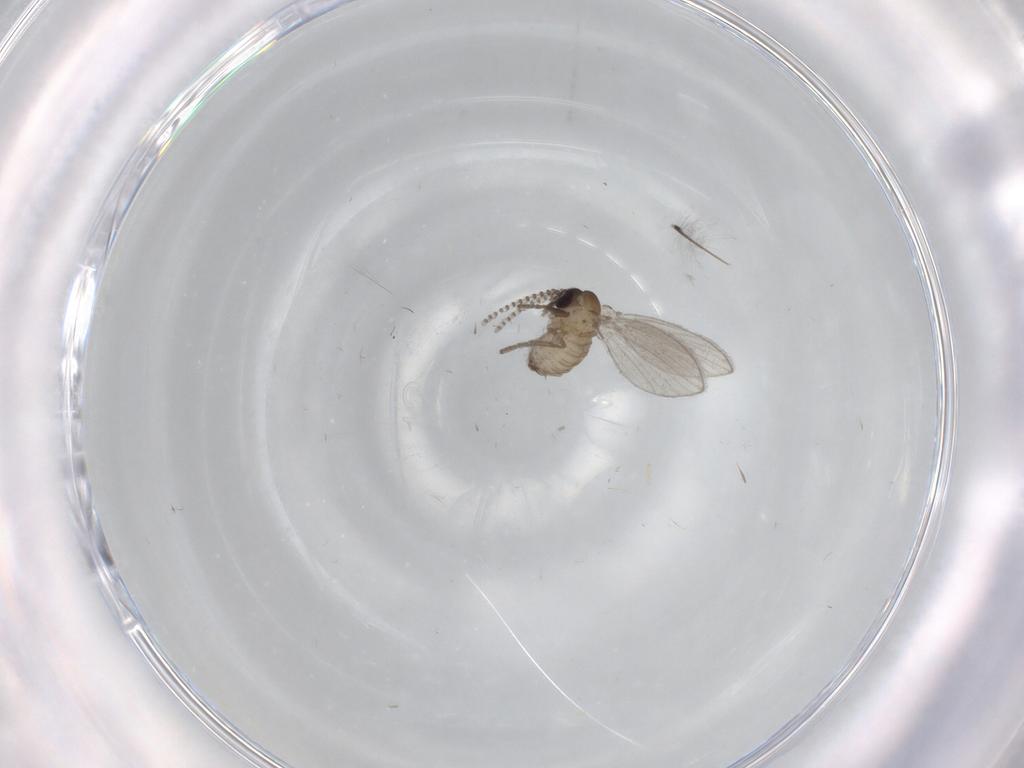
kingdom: Animalia
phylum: Arthropoda
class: Insecta
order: Diptera
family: Psychodidae
